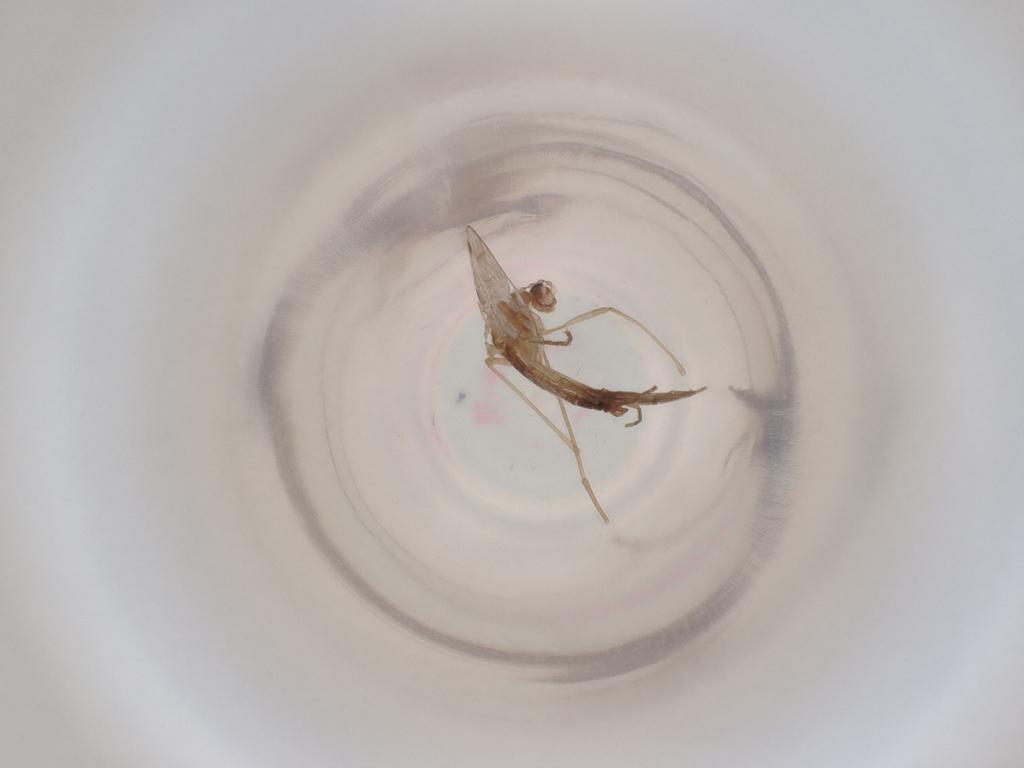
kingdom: Animalia
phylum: Arthropoda
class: Insecta
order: Diptera
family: Cecidomyiidae
